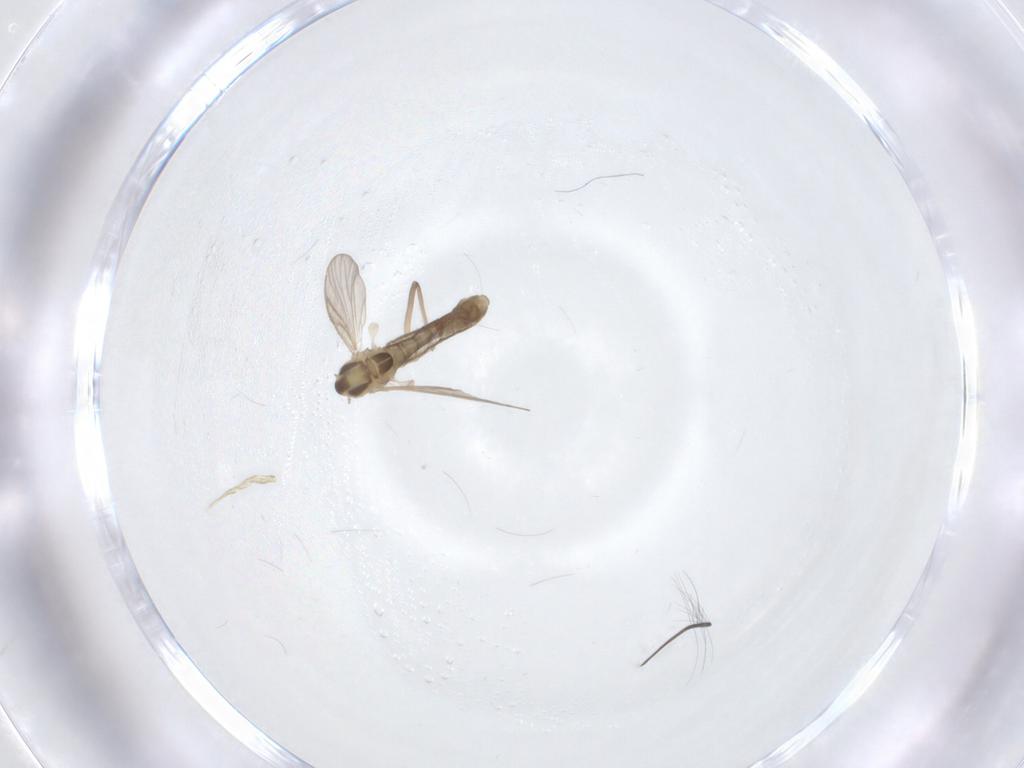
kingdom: Animalia
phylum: Arthropoda
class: Insecta
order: Diptera
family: Chironomidae
